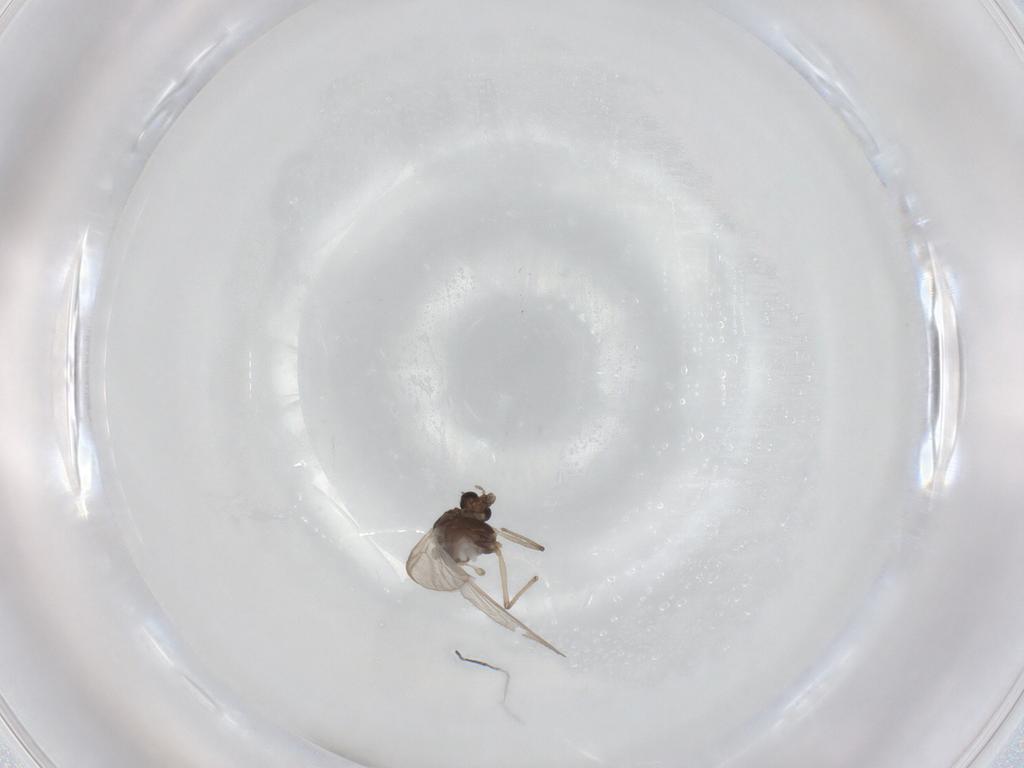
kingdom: Animalia
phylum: Arthropoda
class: Insecta
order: Diptera
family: Chironomidae
